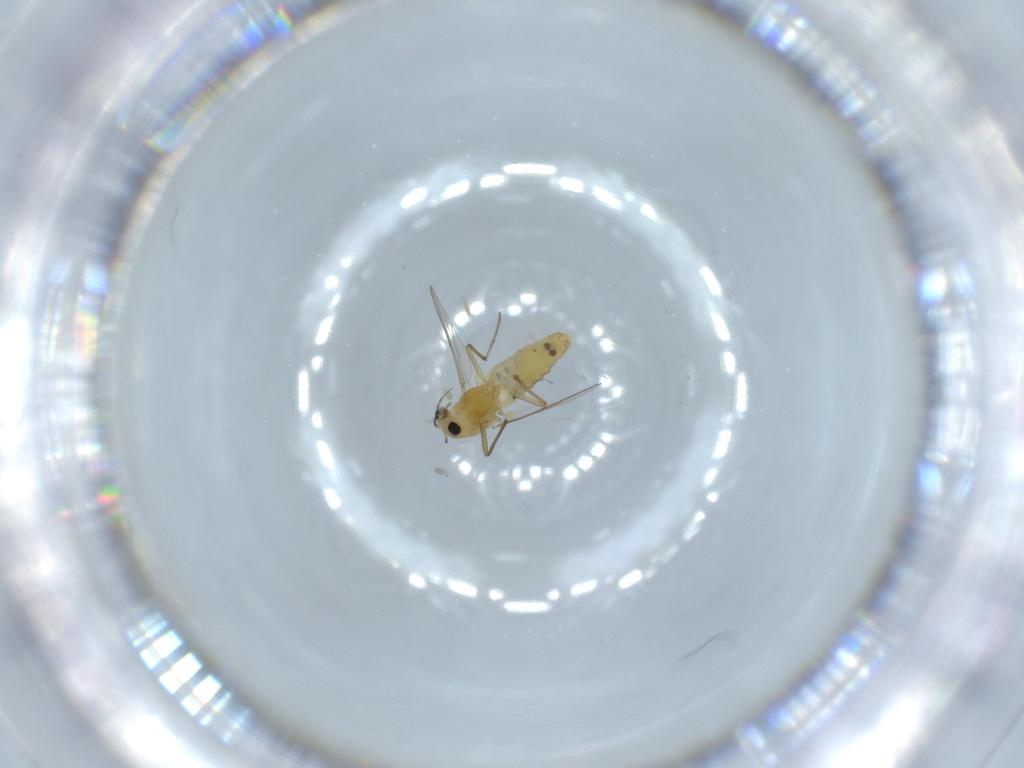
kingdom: Animalia
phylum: Arthropoda
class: Insecta
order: Diptera
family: Chironomidae
